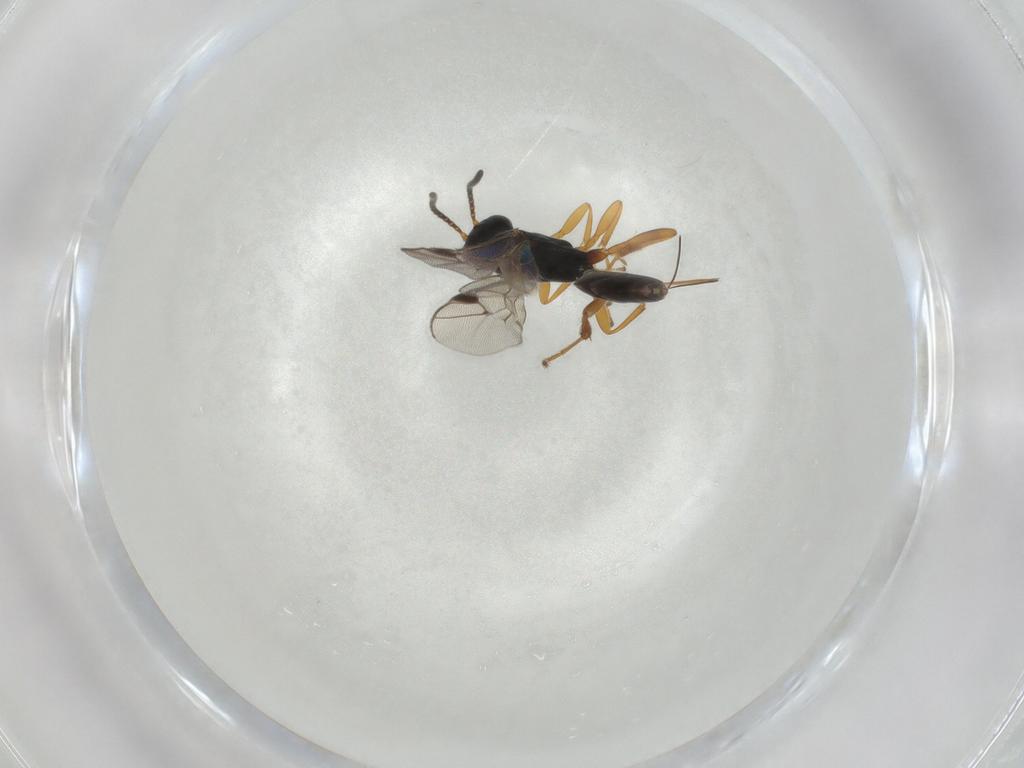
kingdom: Animalia
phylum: Arthropoda
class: Insecta
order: Hymenoptera
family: Ichneumonidae
